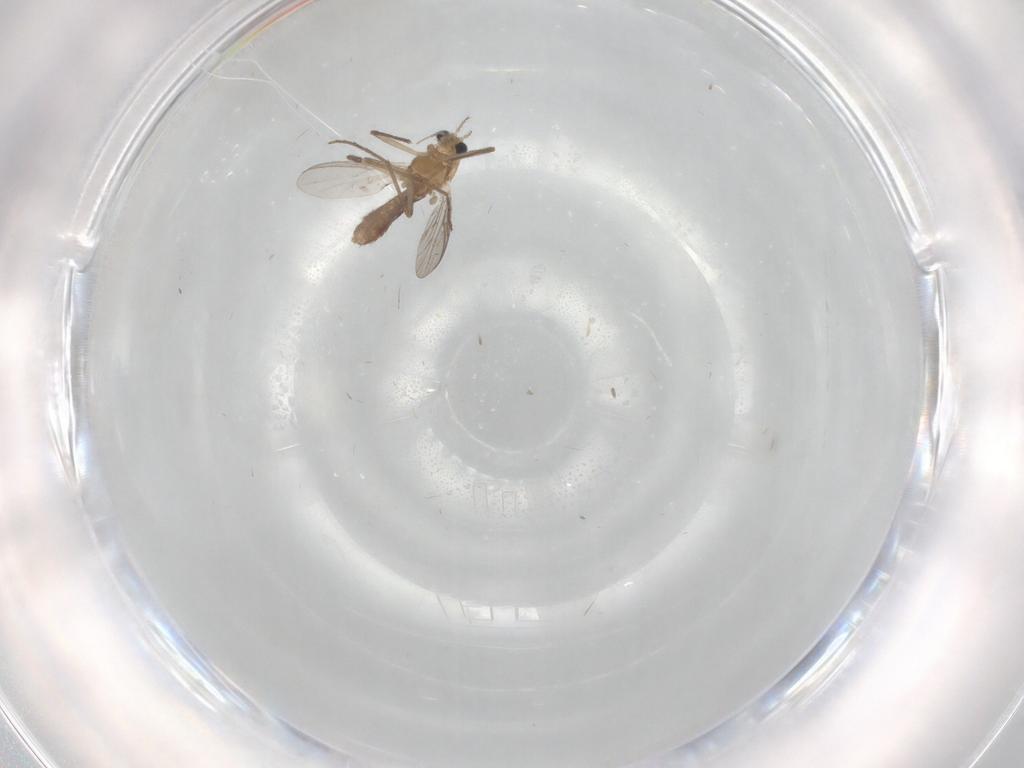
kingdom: Animalia
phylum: Arthropoda
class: Insecta
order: Diptera
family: Chironomidae
